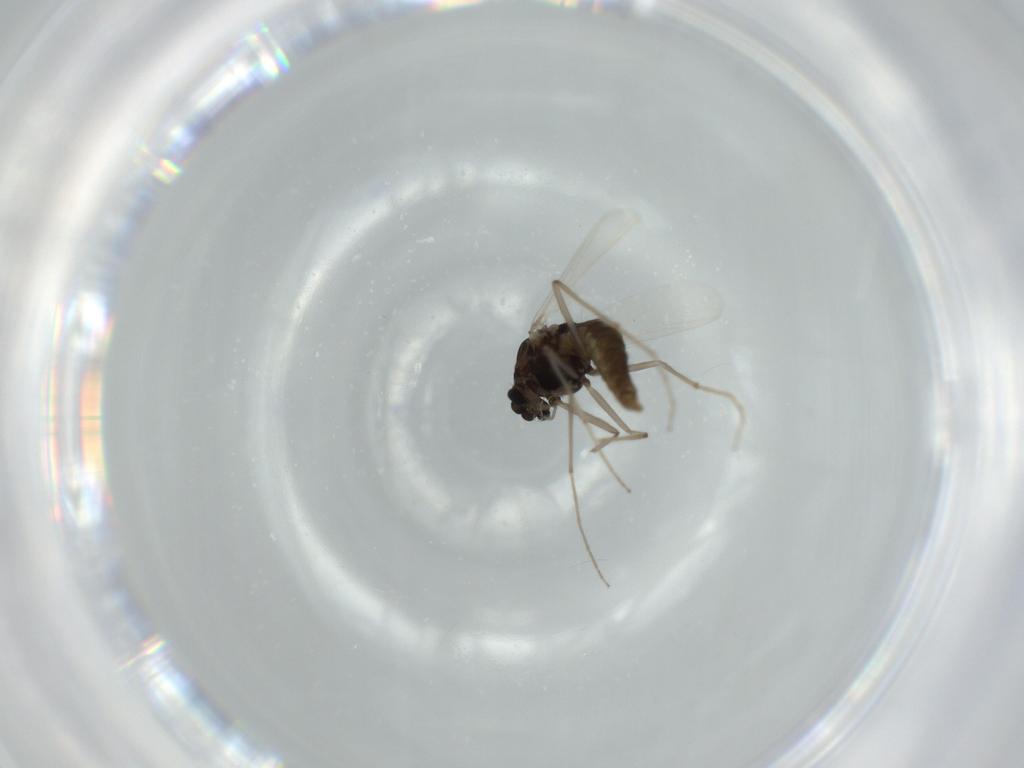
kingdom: Animalia
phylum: Arthropoda
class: Insecta
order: Diptera
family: Chironomidae
